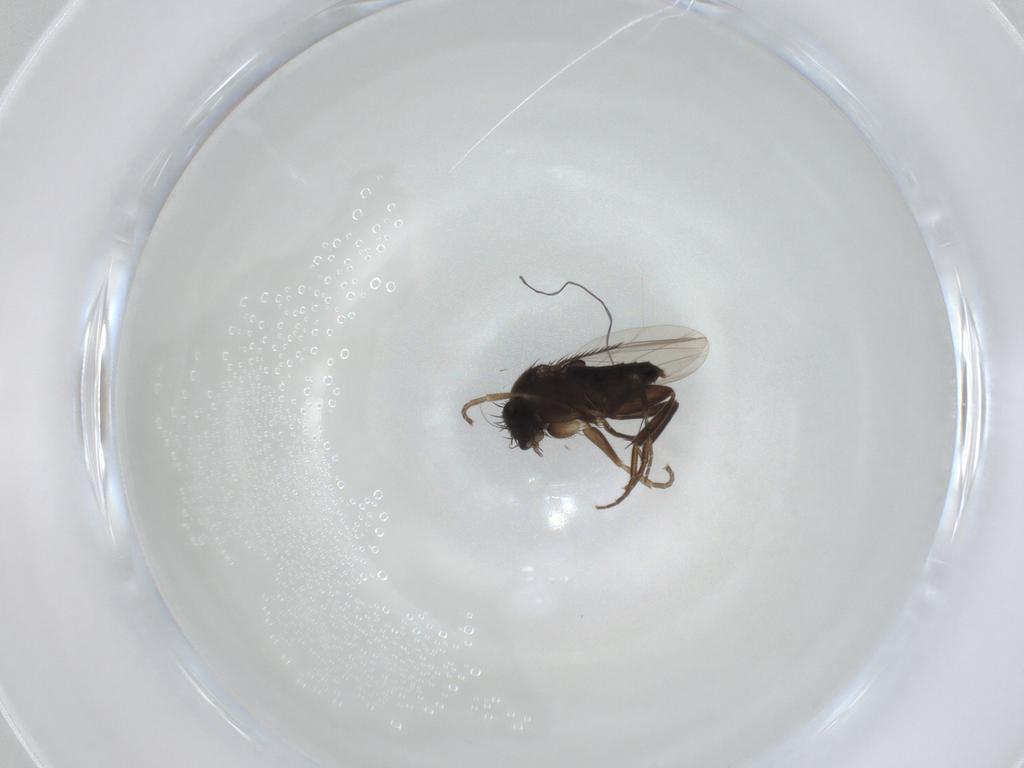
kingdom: Animalia
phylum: Arthropoda
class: Insecta
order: Diptera
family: Phoridae
